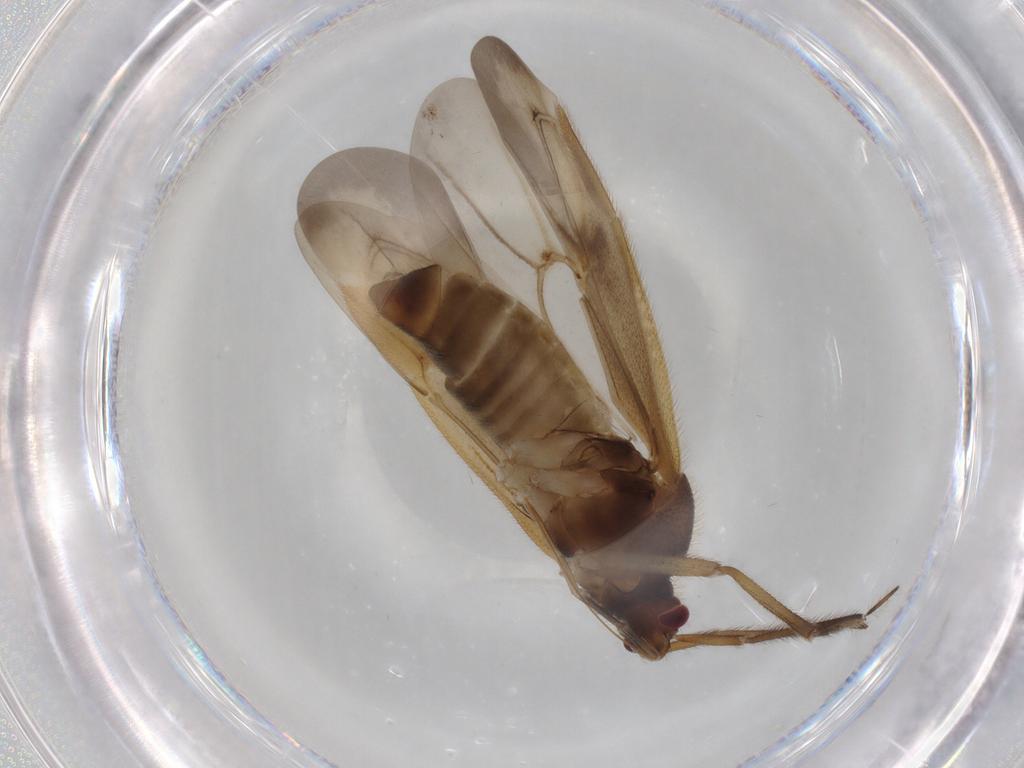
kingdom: Animalia
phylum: Arthropoda
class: Insecta
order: Hemiptera
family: Miridae
